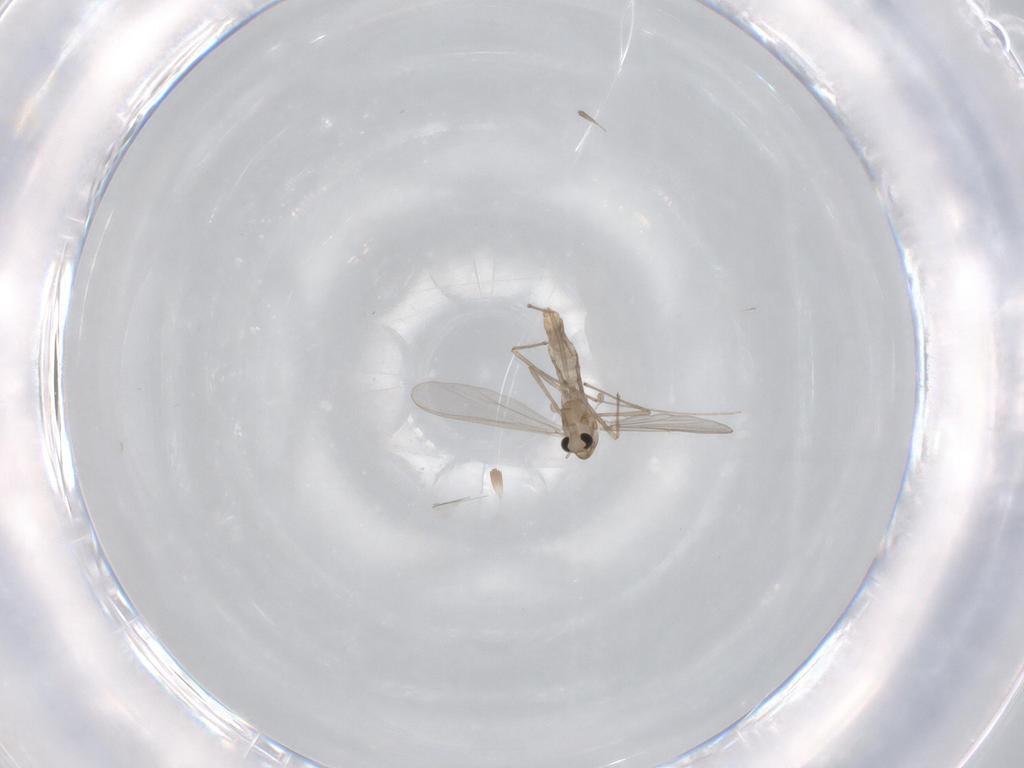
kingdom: Animalia
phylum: Arthropoda
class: Insecta
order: Diptera
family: Chironomidae
